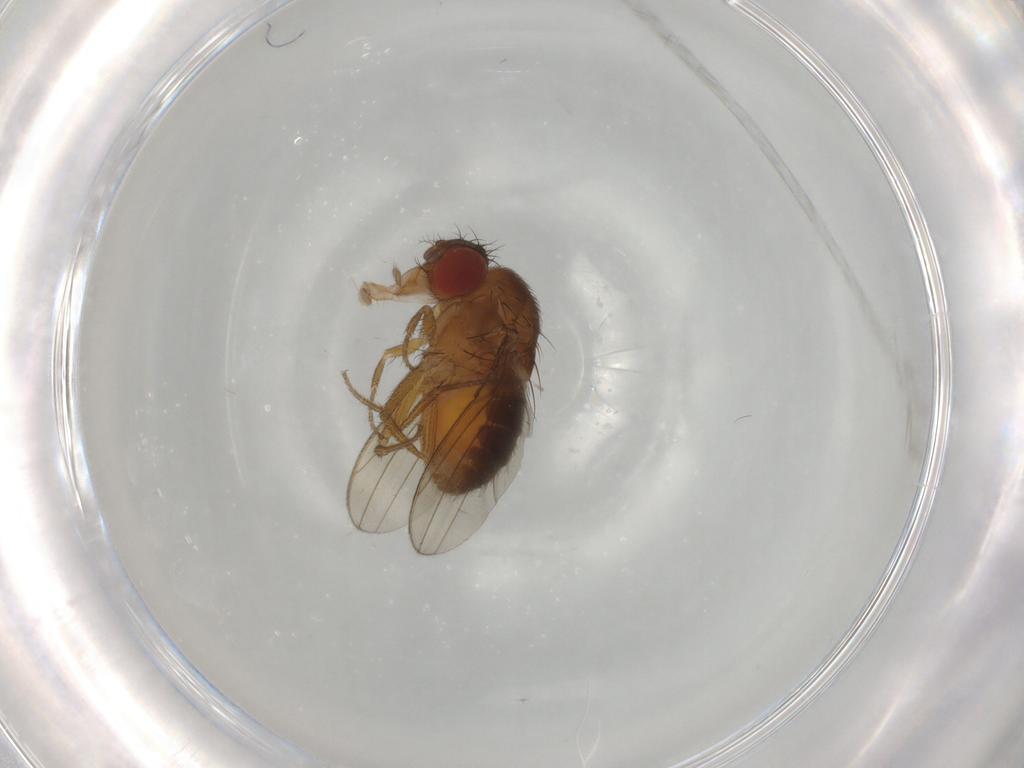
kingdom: Animalia
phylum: Arthropoda
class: Insecta
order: Diptera
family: Drosophilidae
